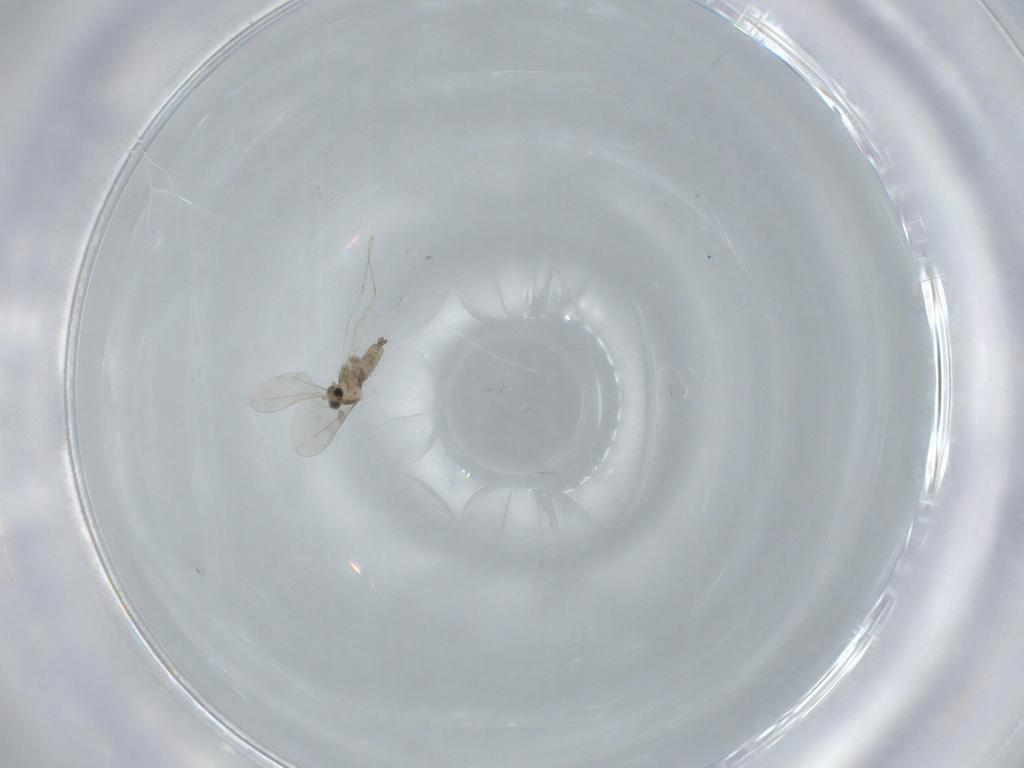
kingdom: Animalia
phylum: Arthropoda
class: Insecta
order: Diptera
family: Cecidomyiidae
